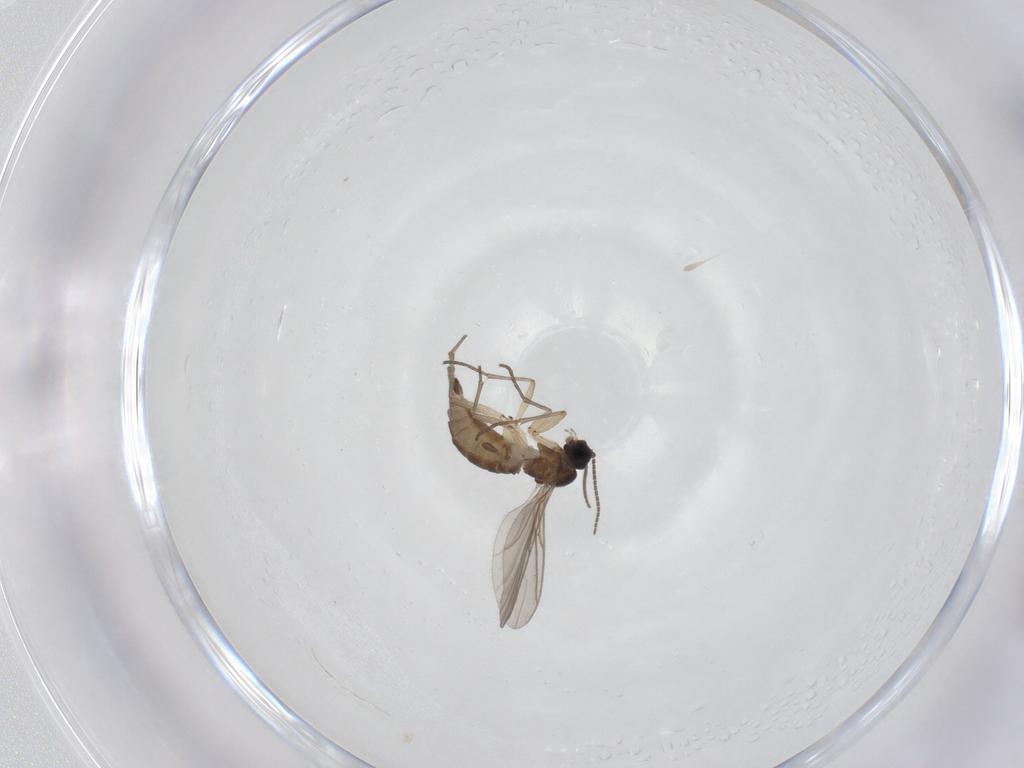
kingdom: Animalia
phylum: Arthropoda
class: Insecta
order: Diptera
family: Sciaridae
